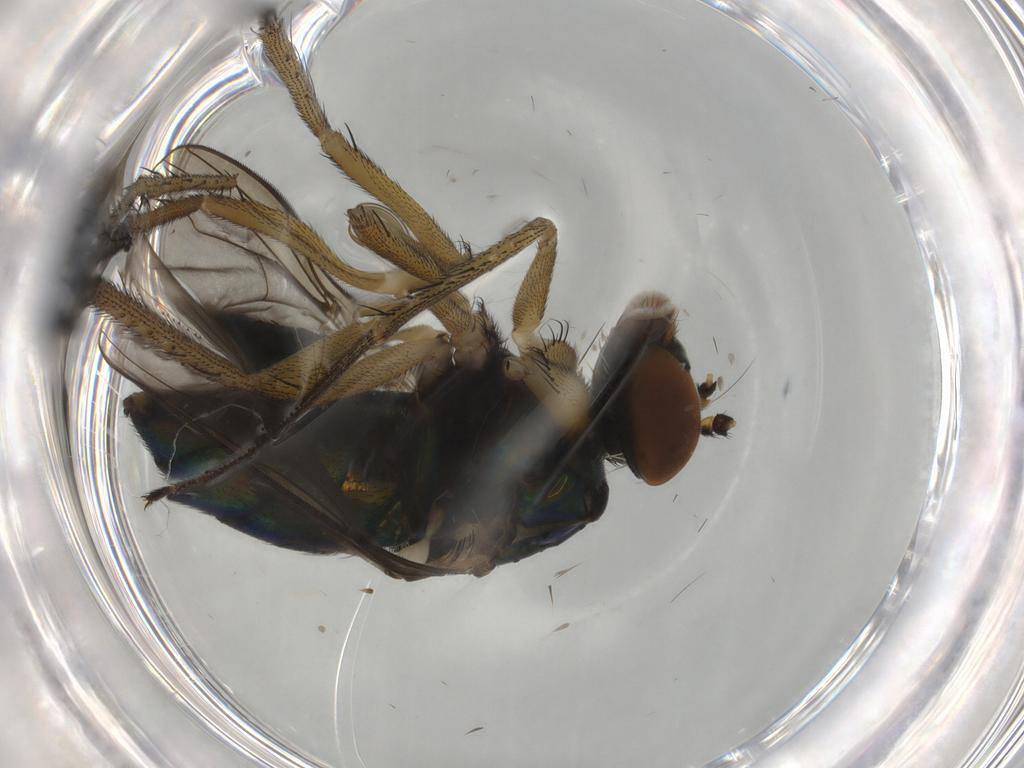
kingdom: Animalia
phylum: Arthropoda
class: Insecta
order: Diptera
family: Dolichopodidae
